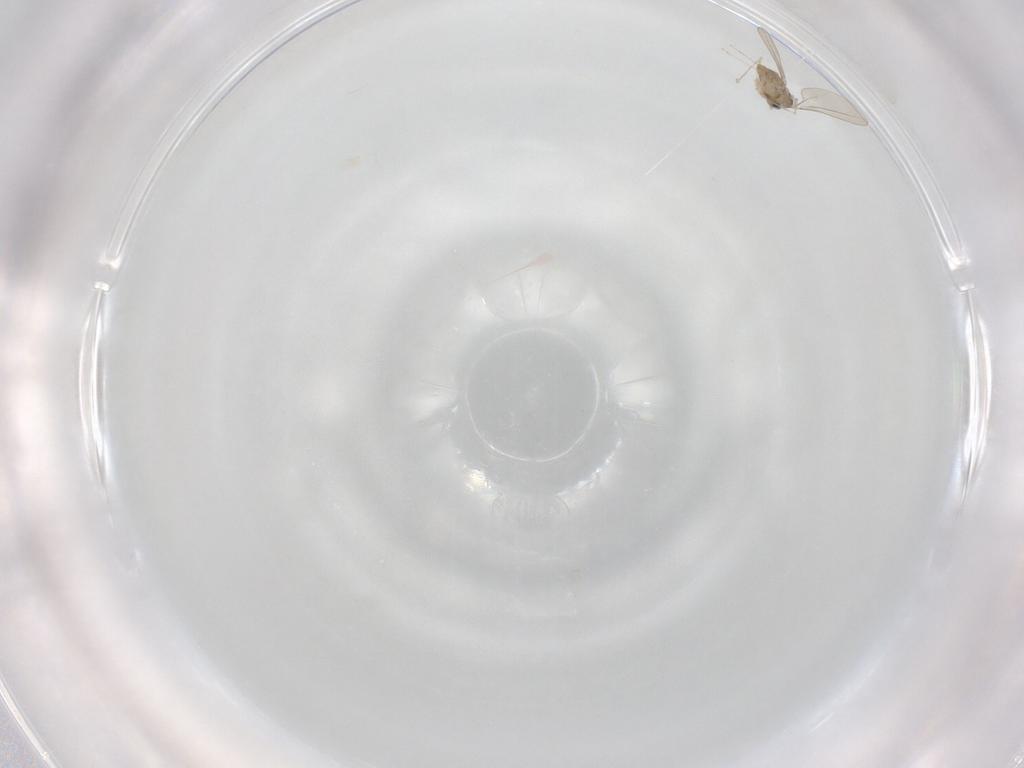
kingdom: Animalia
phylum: Arthropoda
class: Insecta
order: Diptera
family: Cecidomyiidae
